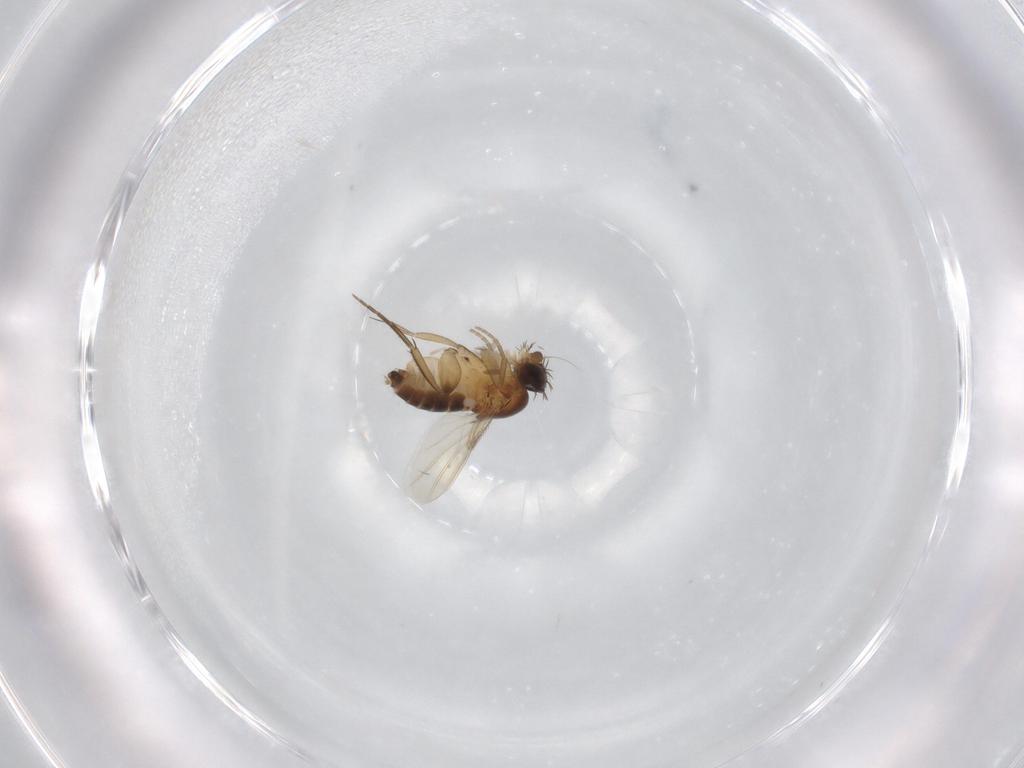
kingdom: Animalia
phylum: Arthropoda
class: Insecta
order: Diptera
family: Phoridae
